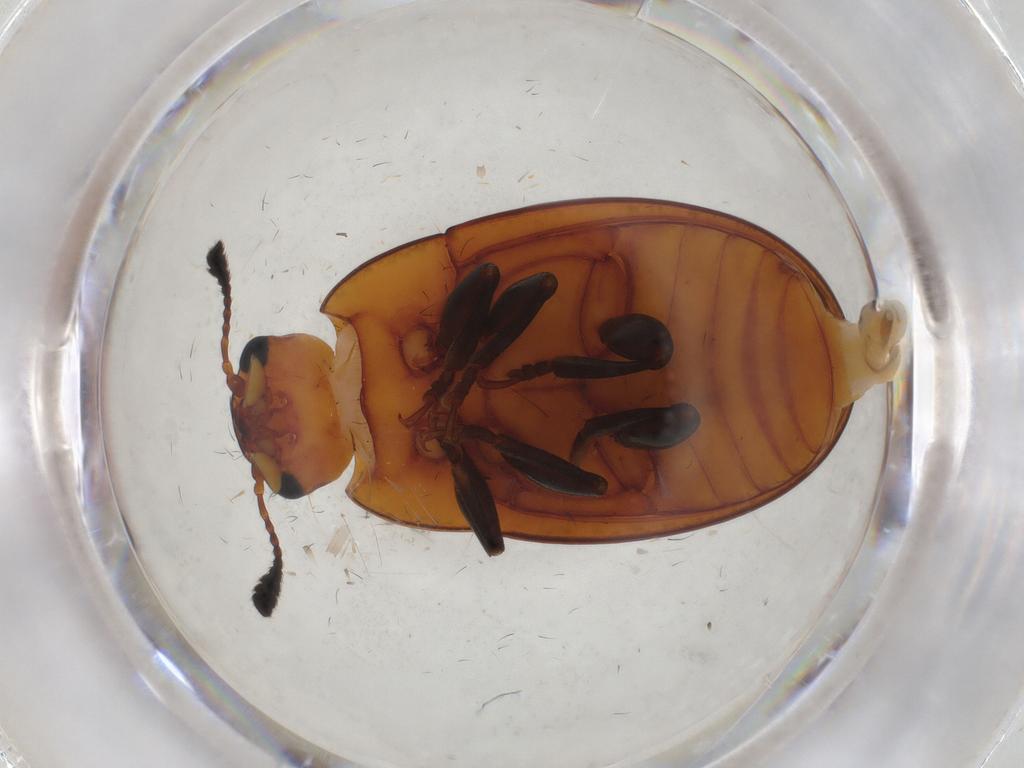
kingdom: Animalia
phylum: Arthropoda
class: Insecta
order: Coleoptera
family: Erotylidae
